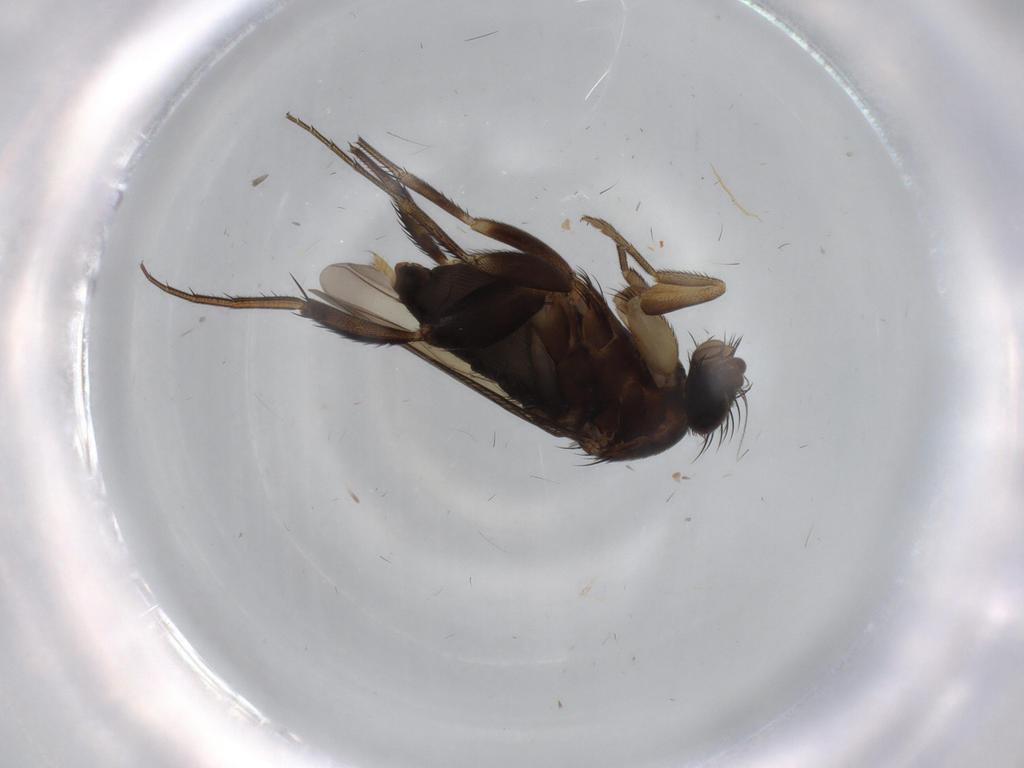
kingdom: Animalia
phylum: Arthropoda
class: Insecta
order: Diptera
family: Phoridae
